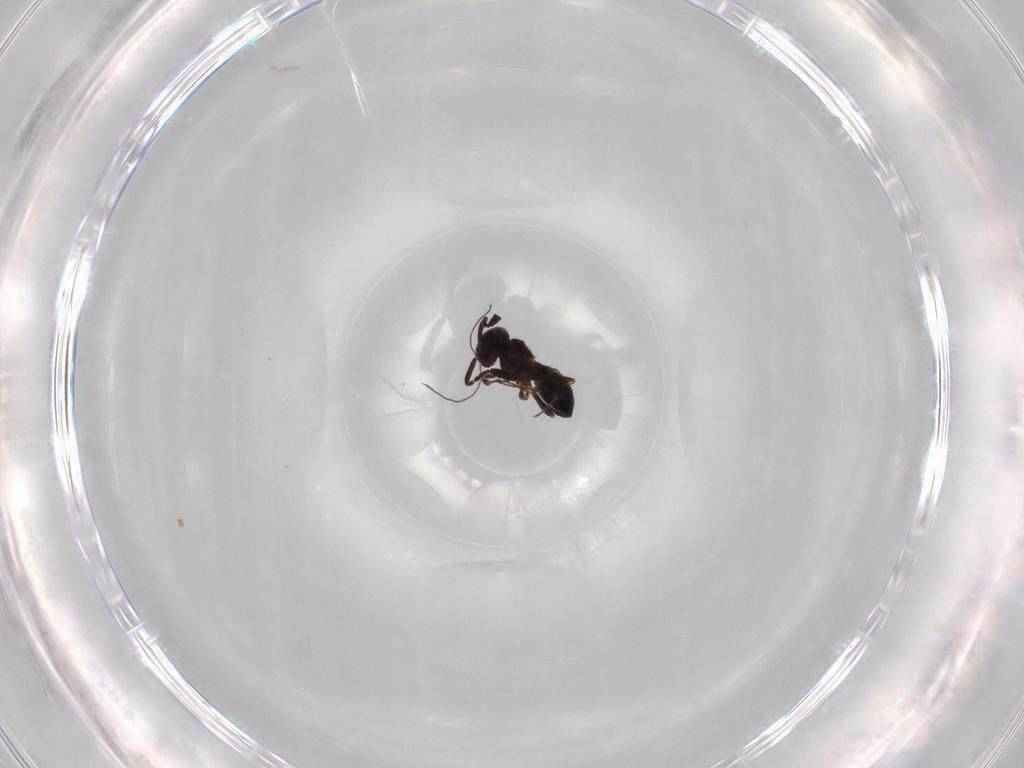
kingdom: Animalia
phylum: Arthropoda
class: Insecta
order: Hymenoptera
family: Scelionidae
